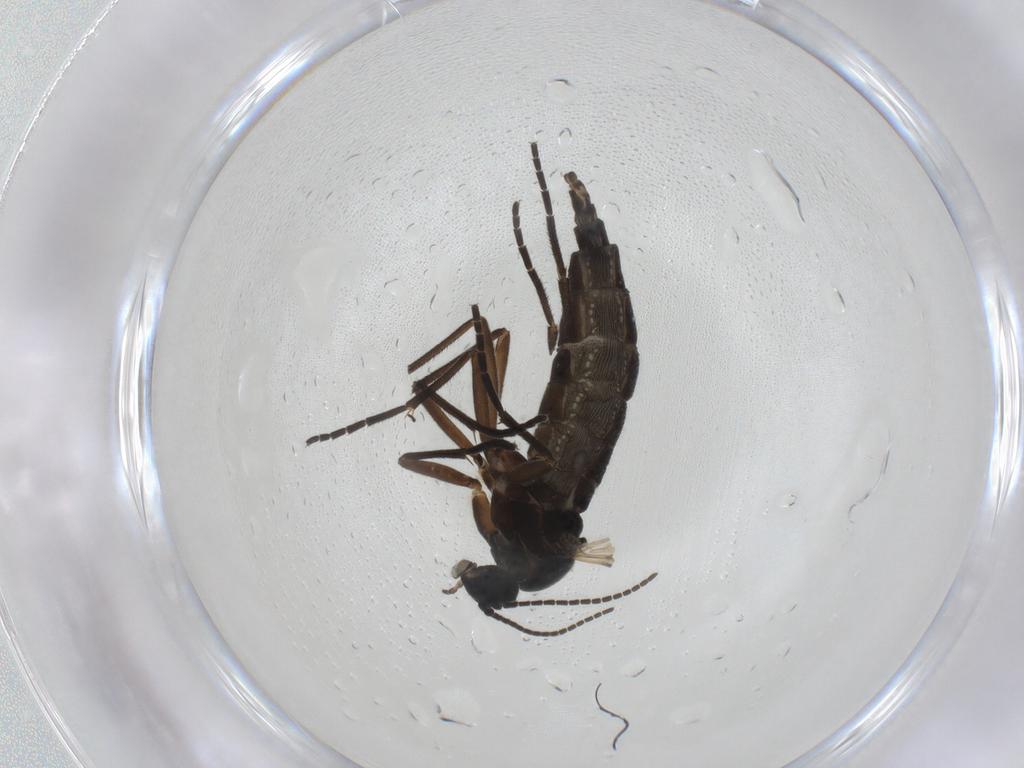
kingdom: Animalia
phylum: Arthropoda
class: Insecta
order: Diptera
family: Sciaridae
